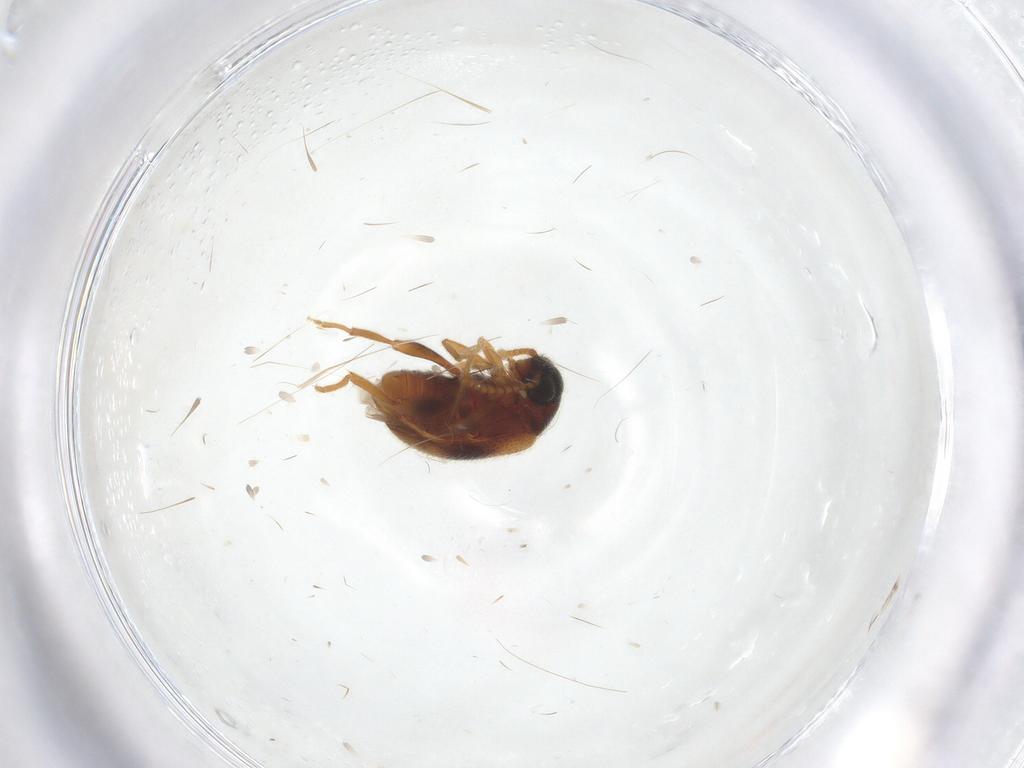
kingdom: Animalia
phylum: Arthropoda
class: Insecta
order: Coleoptera
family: Aderidae
